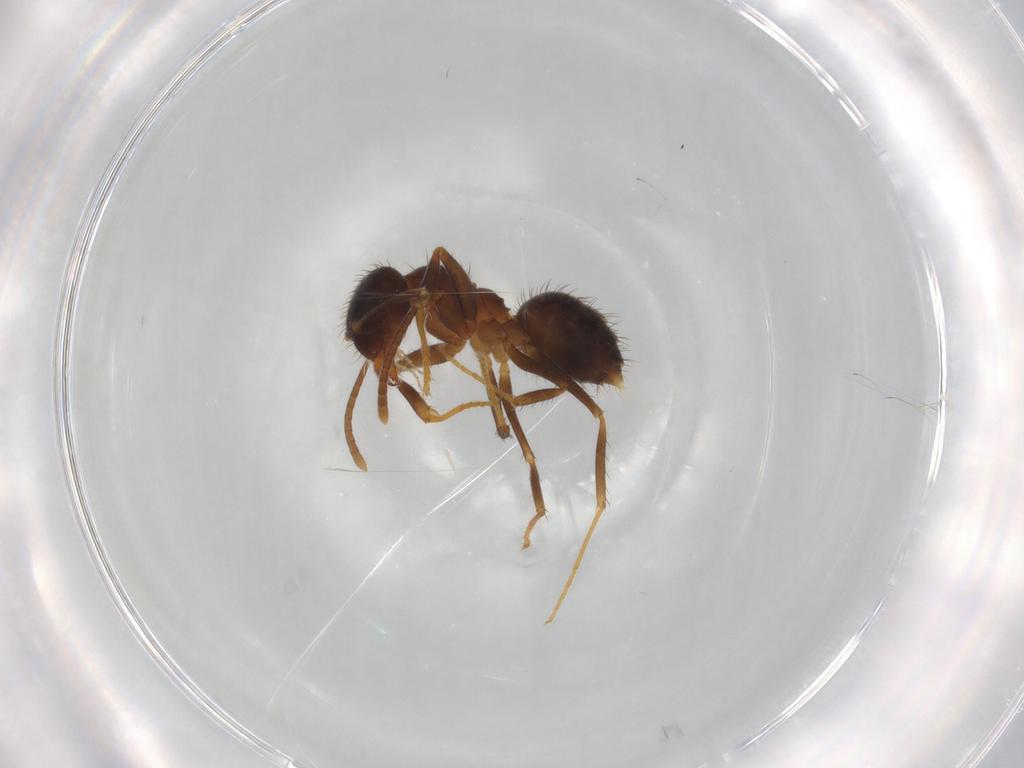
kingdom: Animalia
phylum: Arthropoda
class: Insecta
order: Hymenoptera
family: Formicidae
